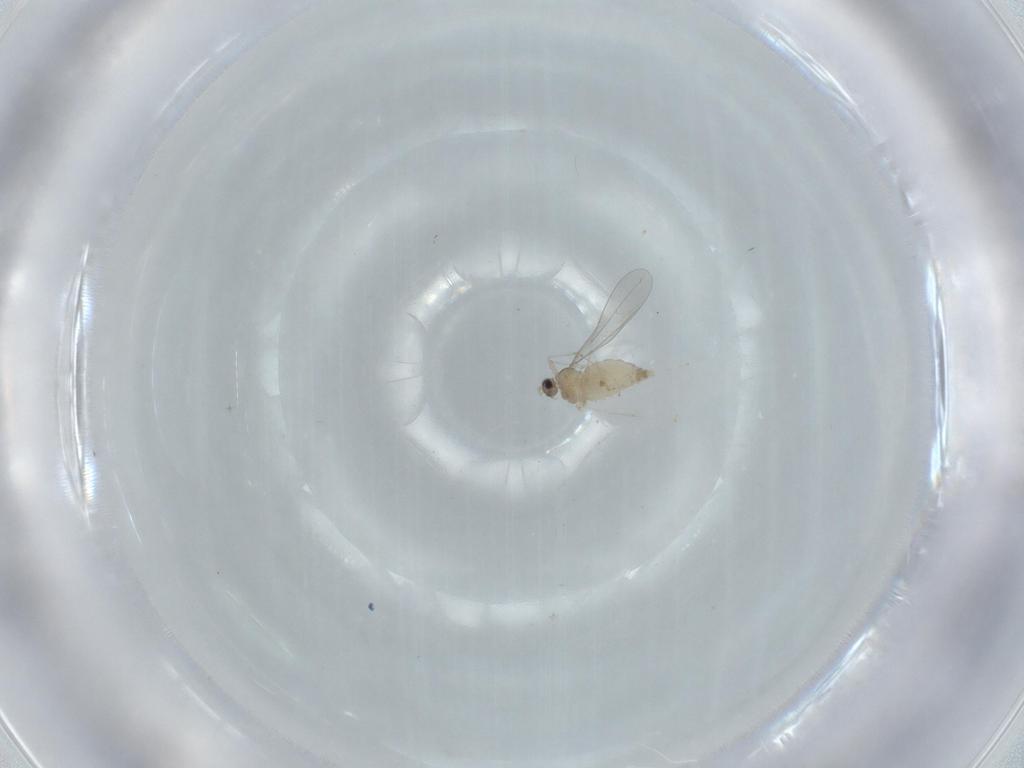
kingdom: Animalia
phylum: Arthropoda
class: Insecta
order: Diptera
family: Cecidomyiidae
